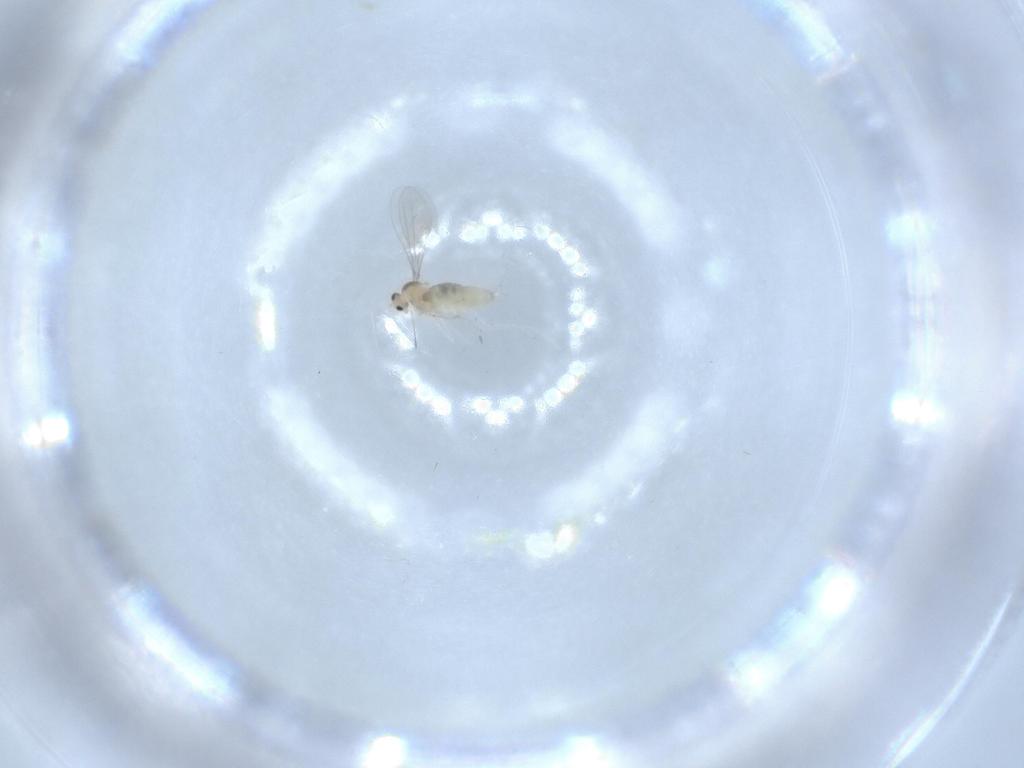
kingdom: Animalia
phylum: Arthropoda
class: Insecta
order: Diptera
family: Cecidomyiidae
